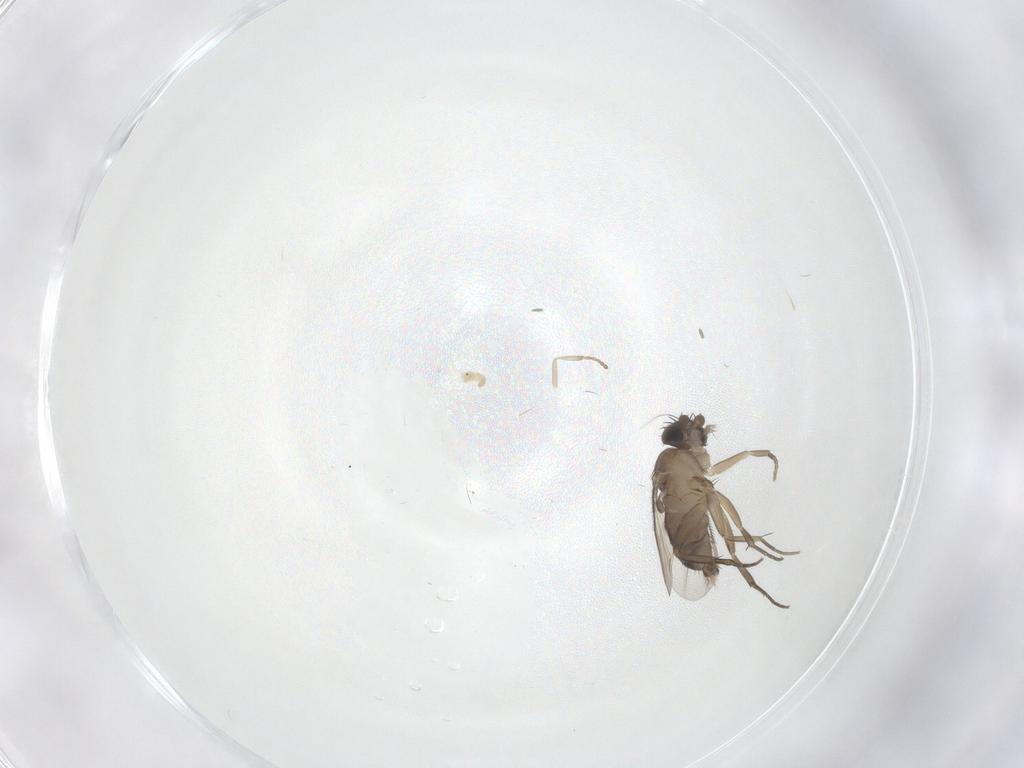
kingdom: Animalia
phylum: Arthropoda
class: Insecta
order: Diptera
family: Phoridae
